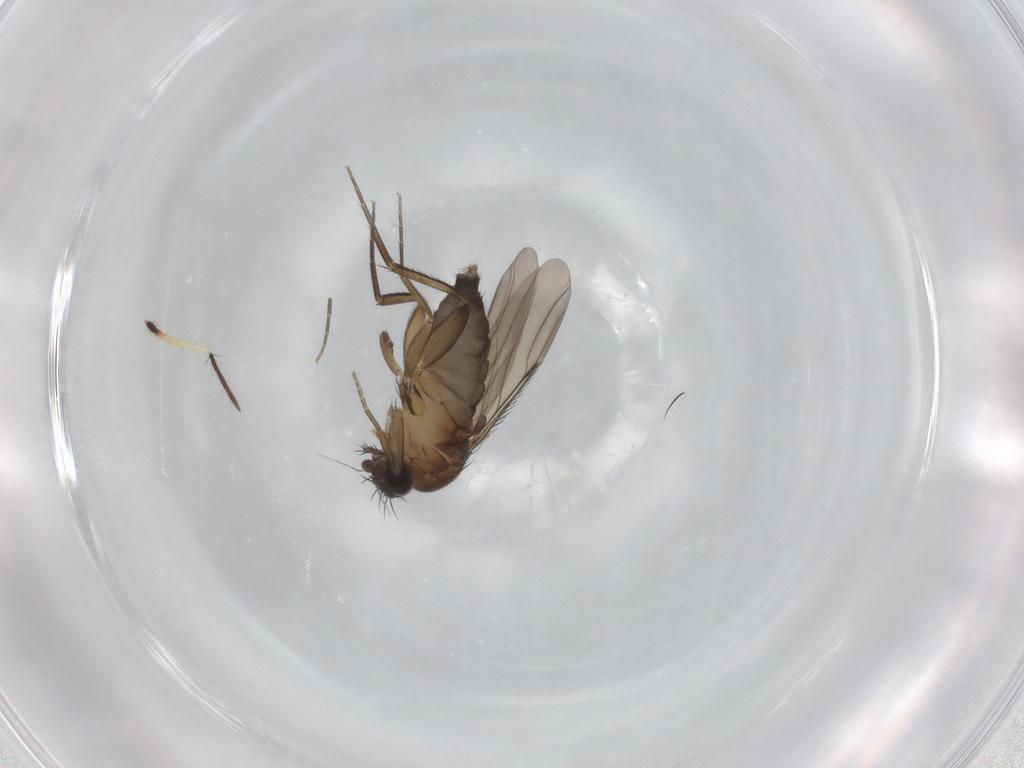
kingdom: Animalia
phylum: Arthropoda
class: Insecta
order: Diptera
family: Phoridae
